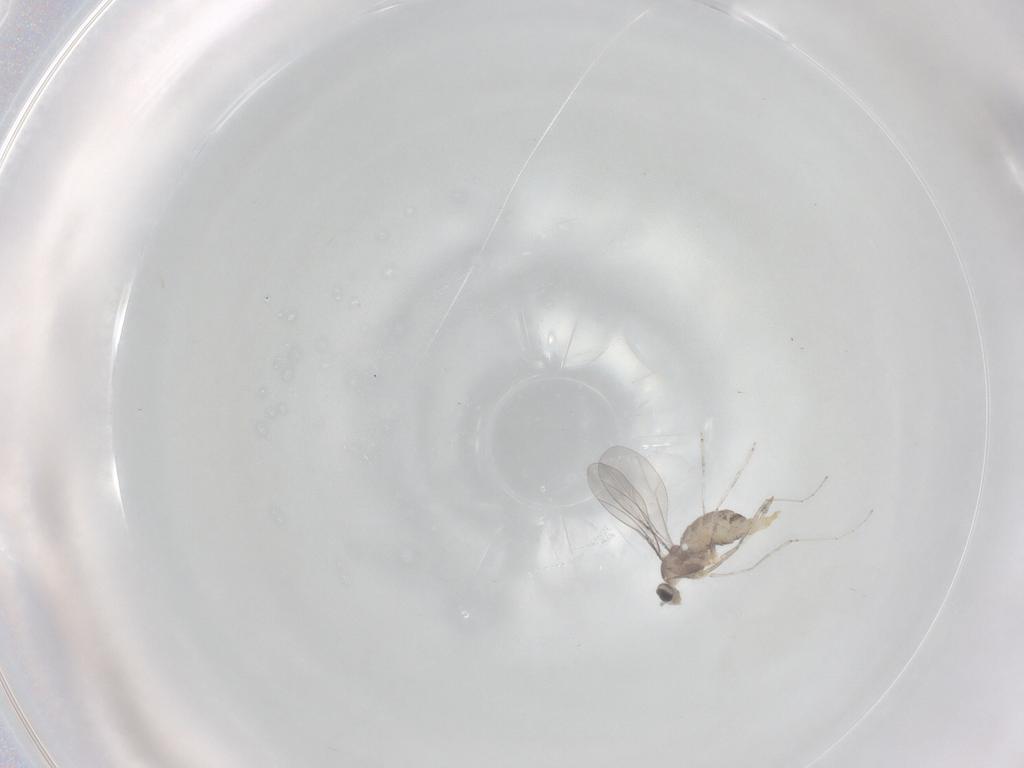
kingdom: Animalia
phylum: Arthropoda
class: Insecta
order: Diptera
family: Cecidomyiidae
